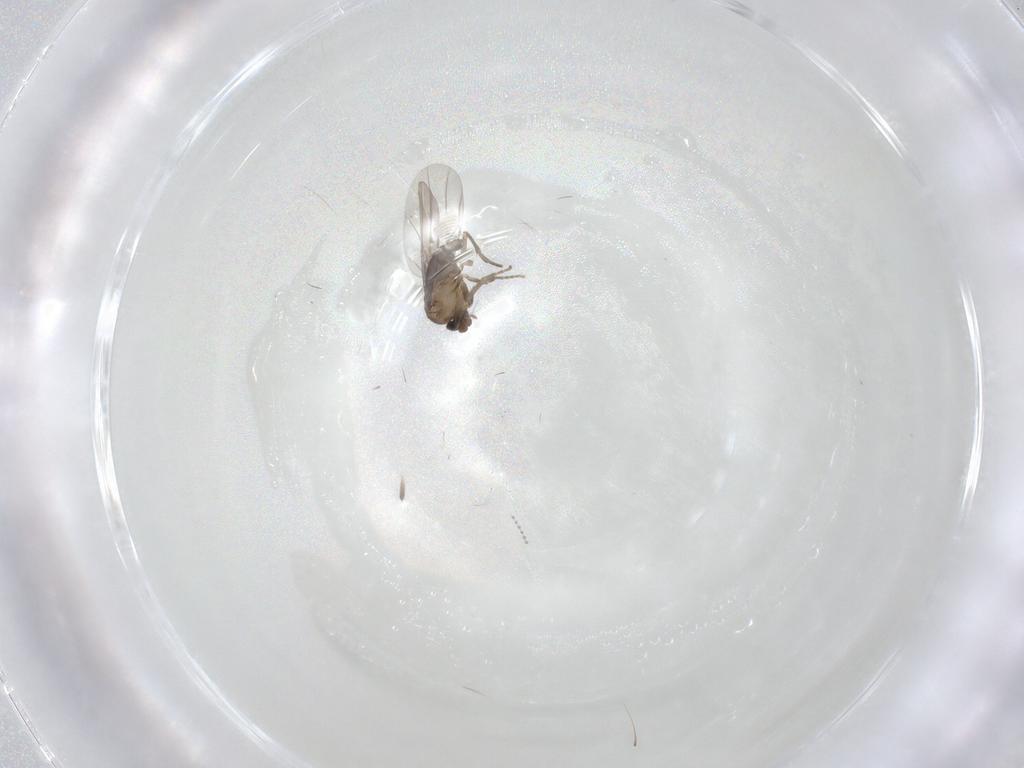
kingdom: Animalia
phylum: Arthropoda
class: Insecta
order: Diptera
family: Phoridae
